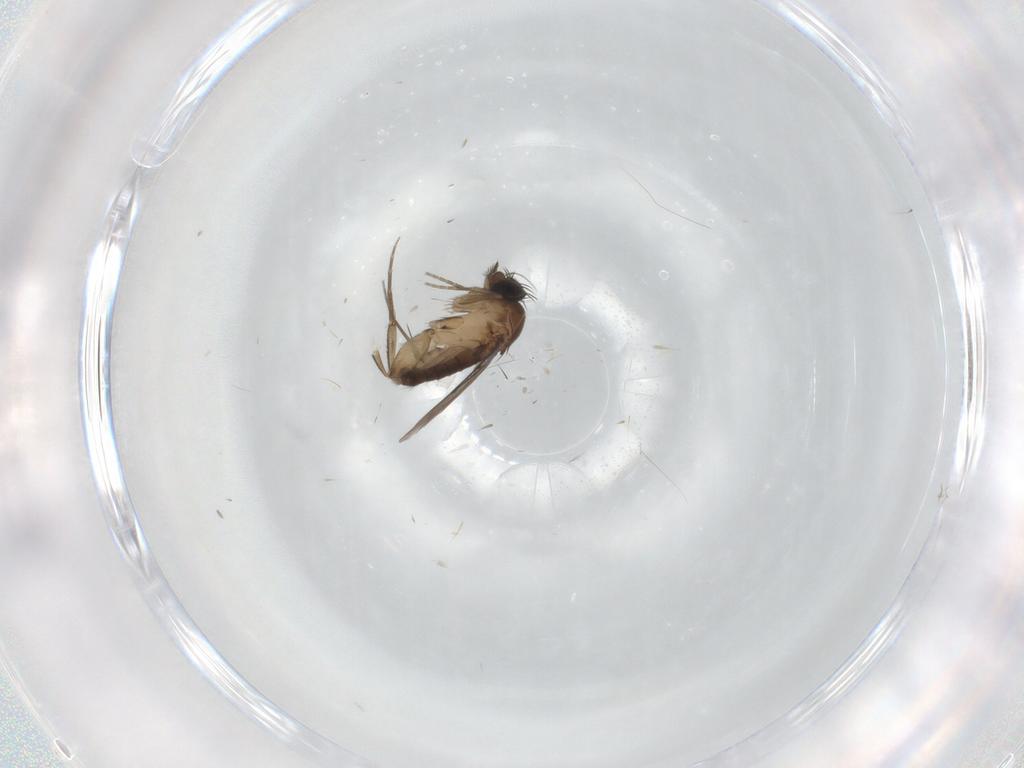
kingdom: Animalia
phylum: Arthropoda
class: Insecta
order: Diptera
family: Phoridae
